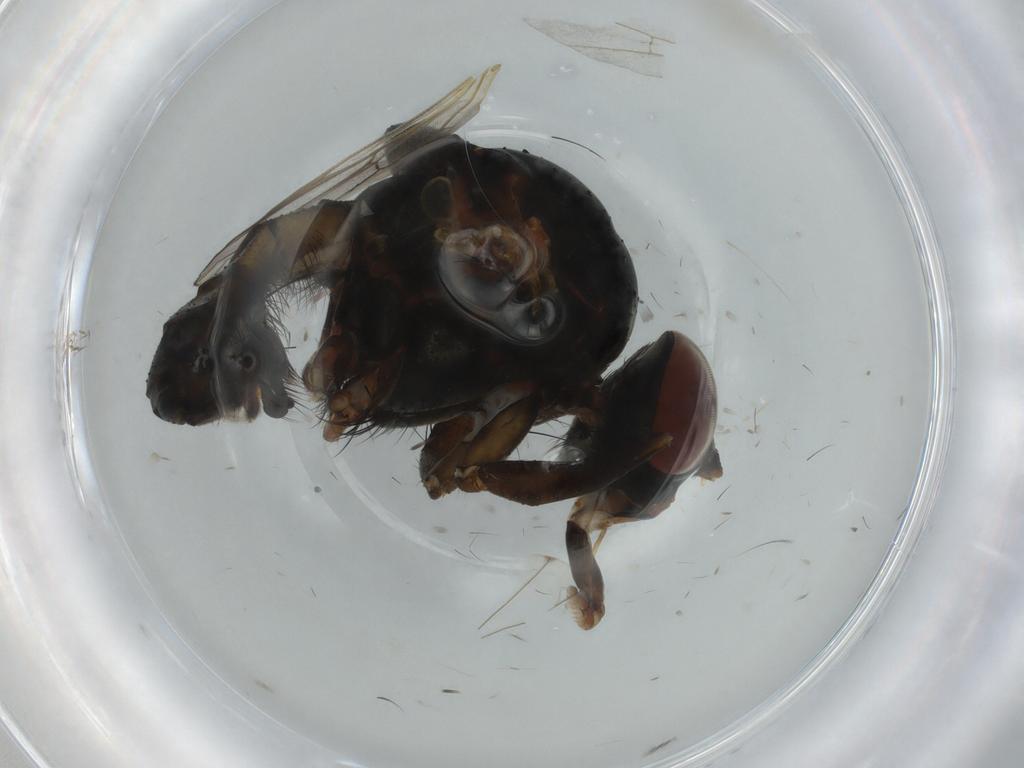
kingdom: Animalia
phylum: Arthropoda
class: Insecta
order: Diptera
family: Anthomyiidae
